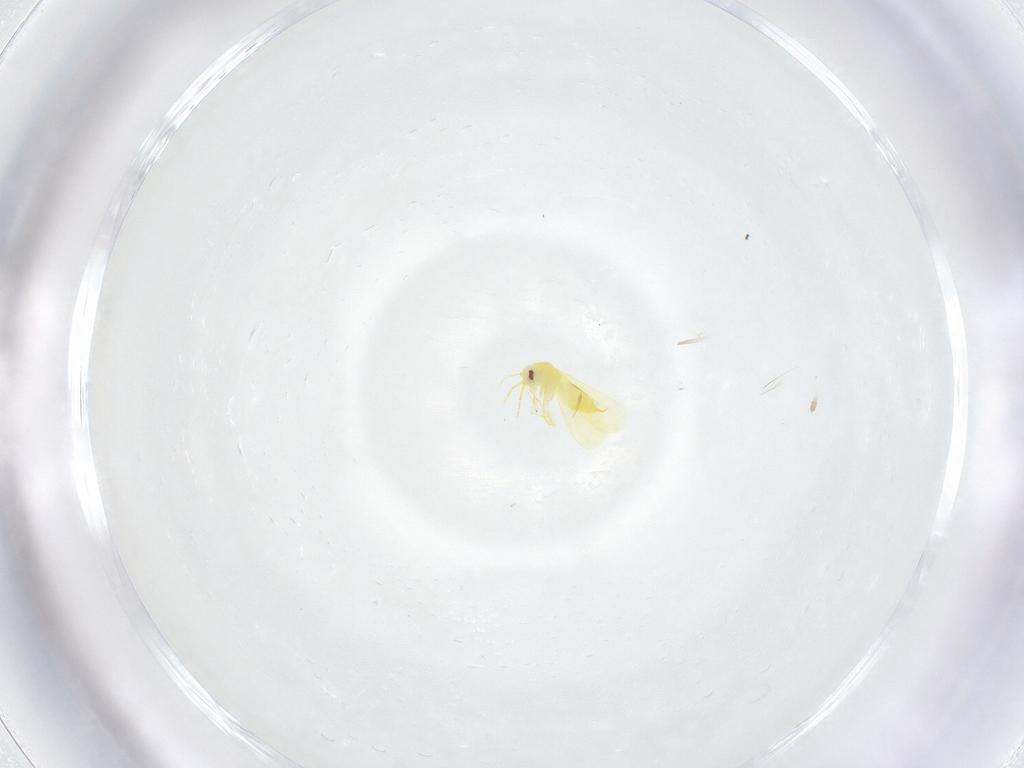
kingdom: Animalia
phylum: Arthropoda
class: Insecta
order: Hemiptera
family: Aleyrodidae
